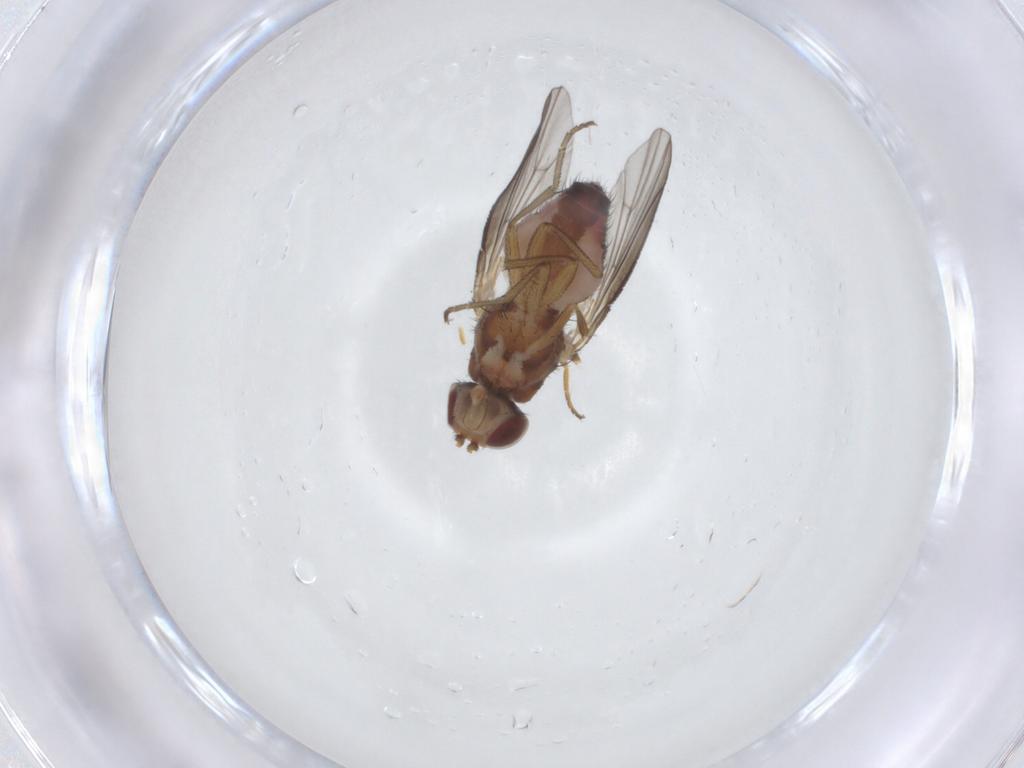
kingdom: Animalia
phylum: Arthropoda
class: Insecta
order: Diptera
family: Heleomyzidae
